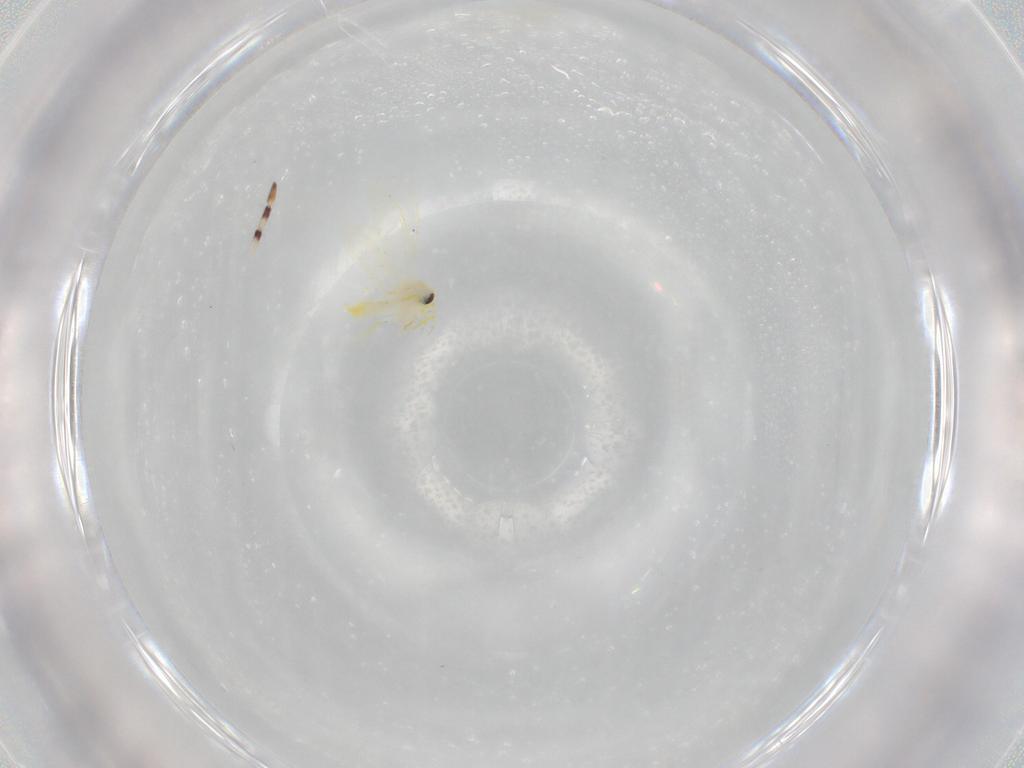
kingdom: Animalia
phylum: Arthropoda
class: Insecta
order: Hemiptera
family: Aleyrodidae
